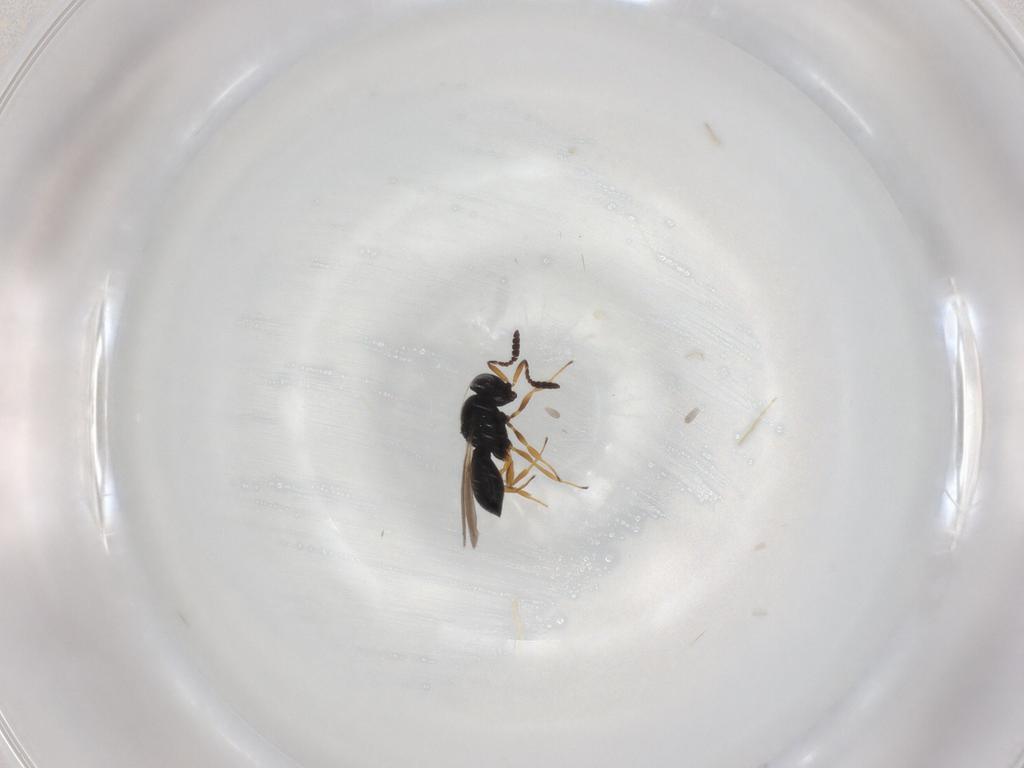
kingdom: Animalia
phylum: Arthropoda
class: Insecta
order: Hymenoptera
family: Scelionidae
